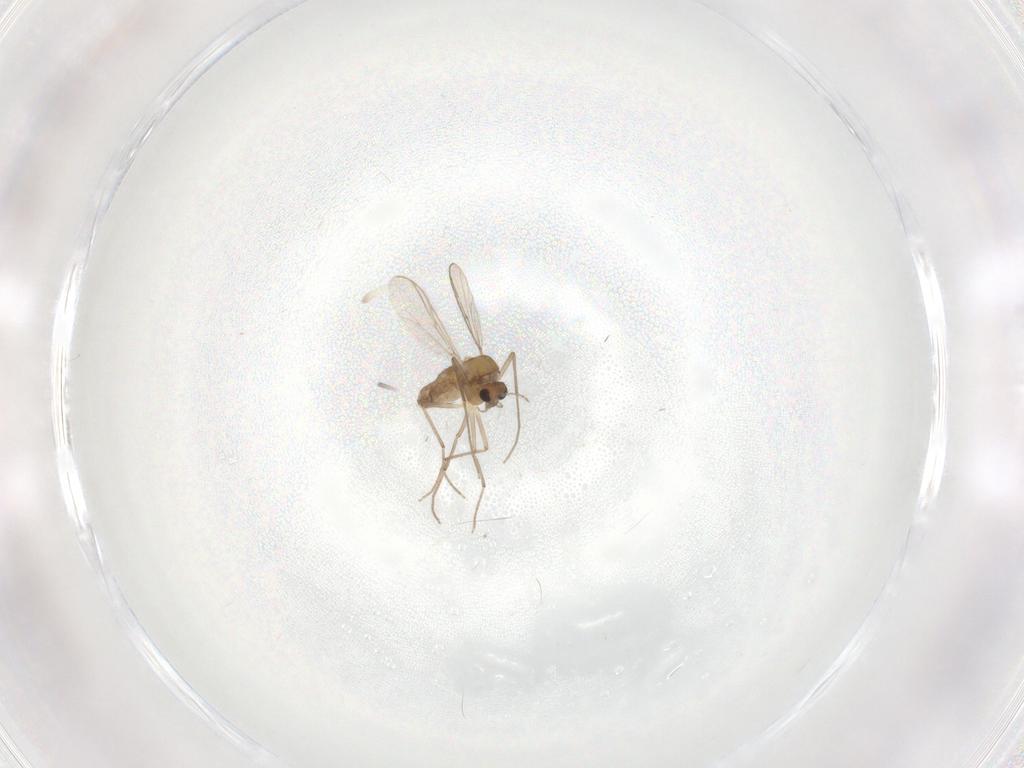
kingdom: Animalia
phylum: Arthropoda
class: Insecta
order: Diptera
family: Chironomidae
